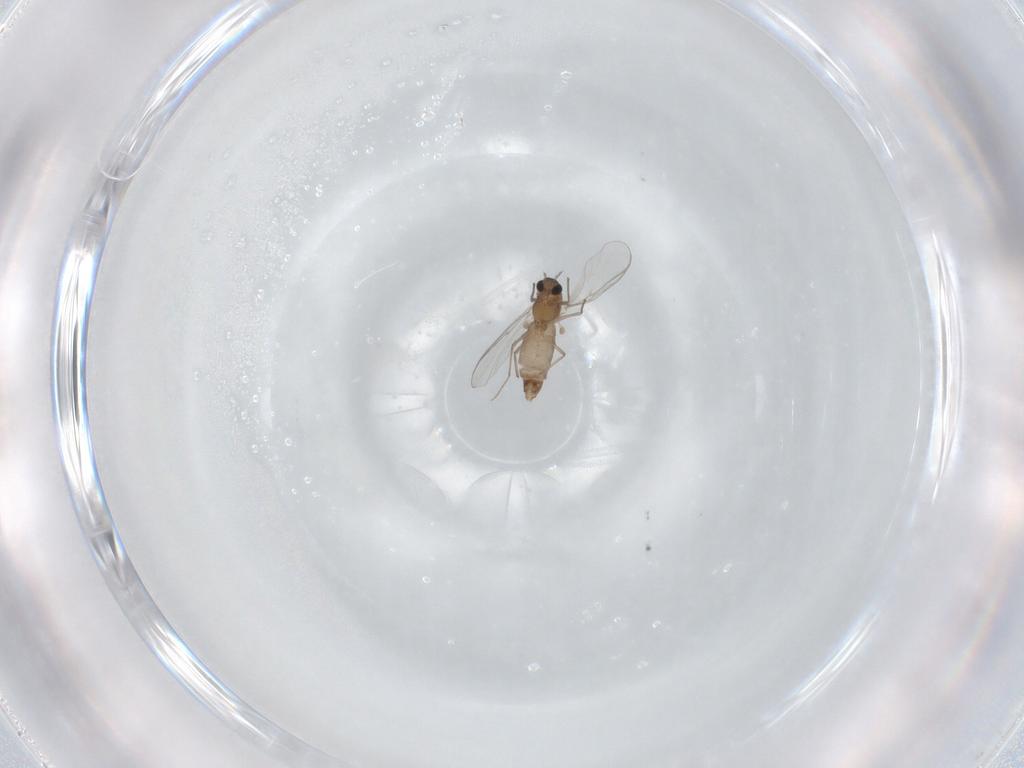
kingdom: Animalia
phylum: Arthropoda
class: Insecta
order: Diptera
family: Chironomidae
